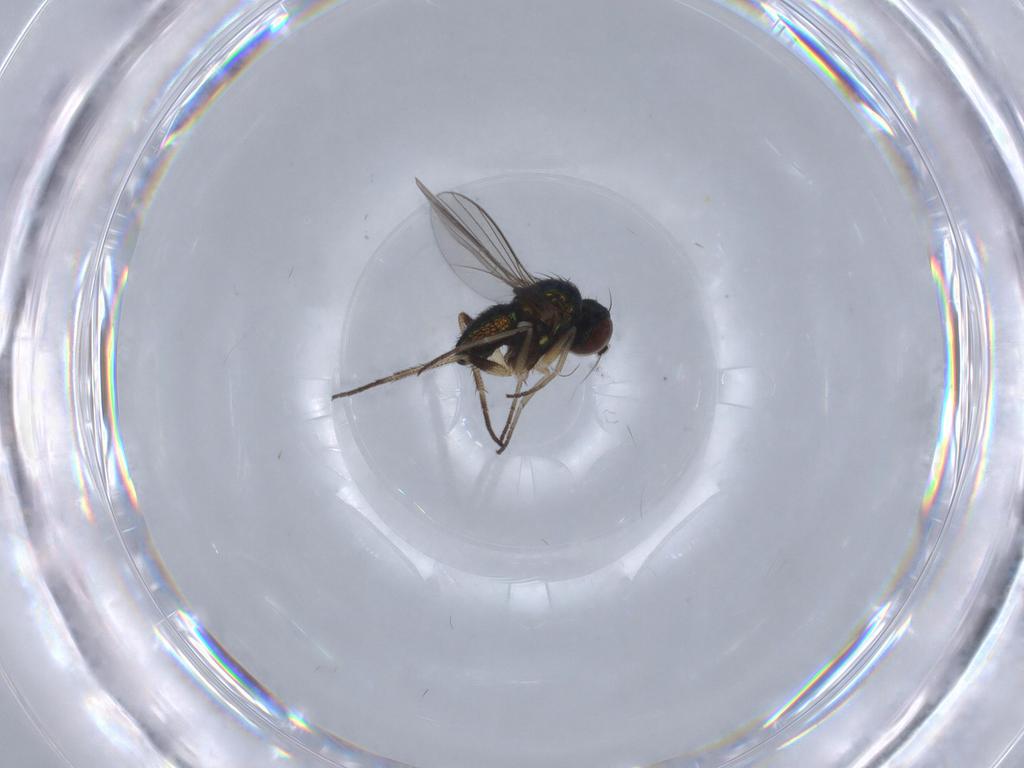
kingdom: Animalia
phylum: Arthropoda
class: Insecta
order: Diptera
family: Dolichopodidae
